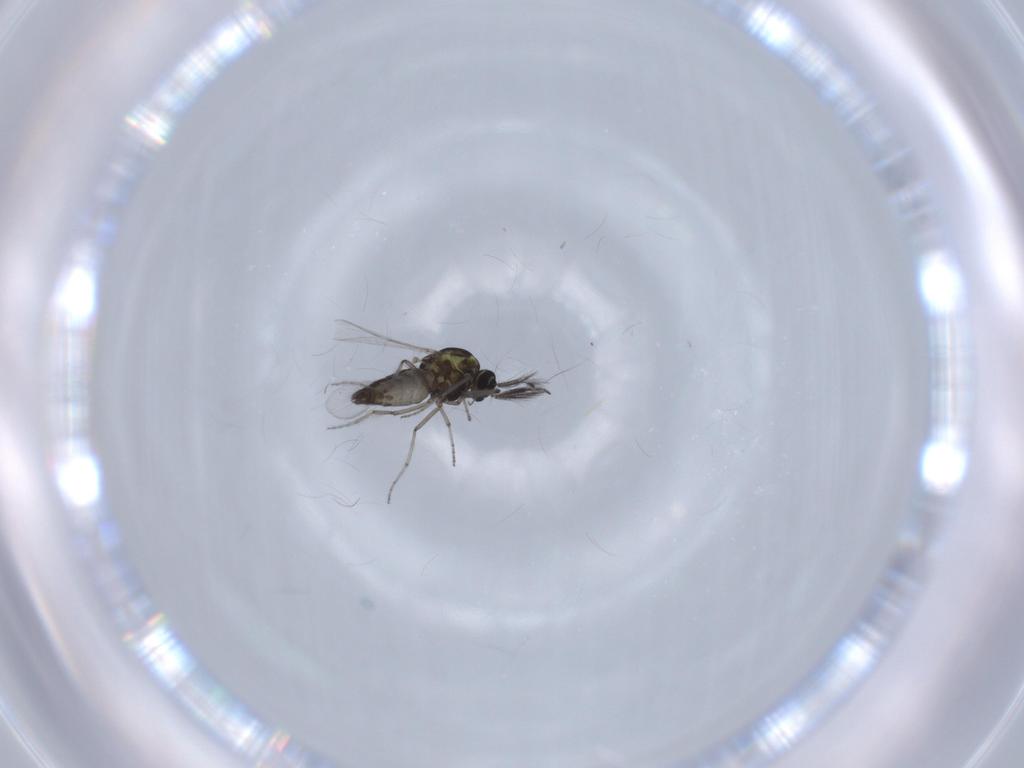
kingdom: Animalia
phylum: Arthropoda
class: Insecta
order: Diptera
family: Ceratopogonidae
